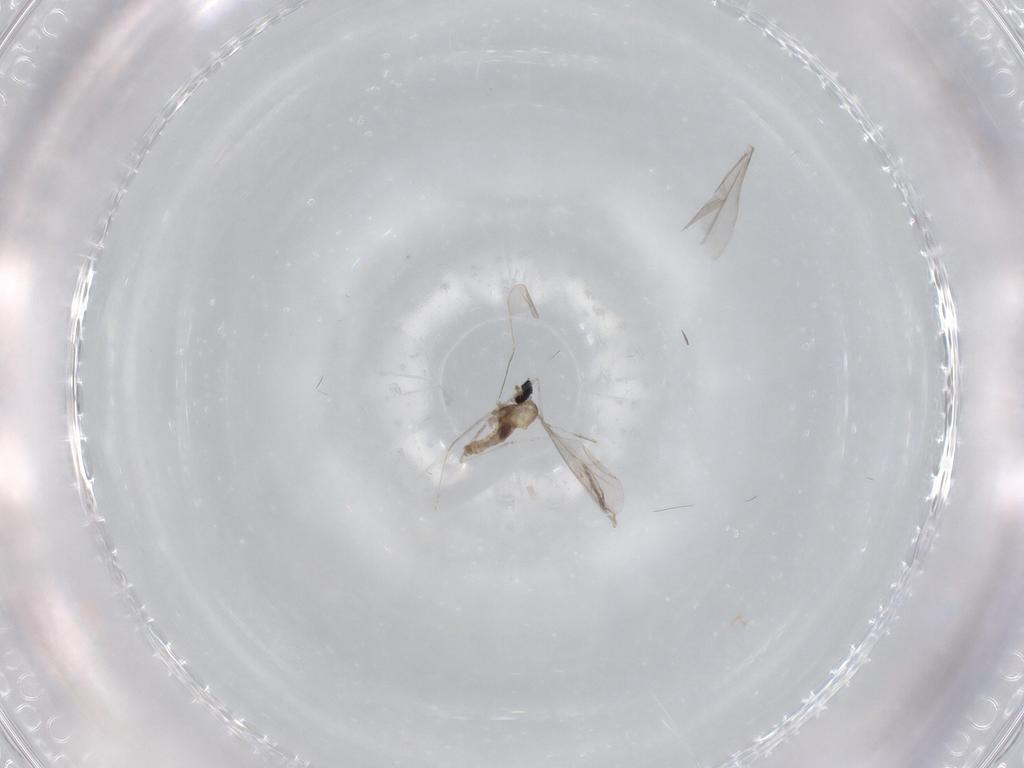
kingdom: Animalia
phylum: Arthropoda
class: Insecta
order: Diptera
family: Cecidomyiidae
